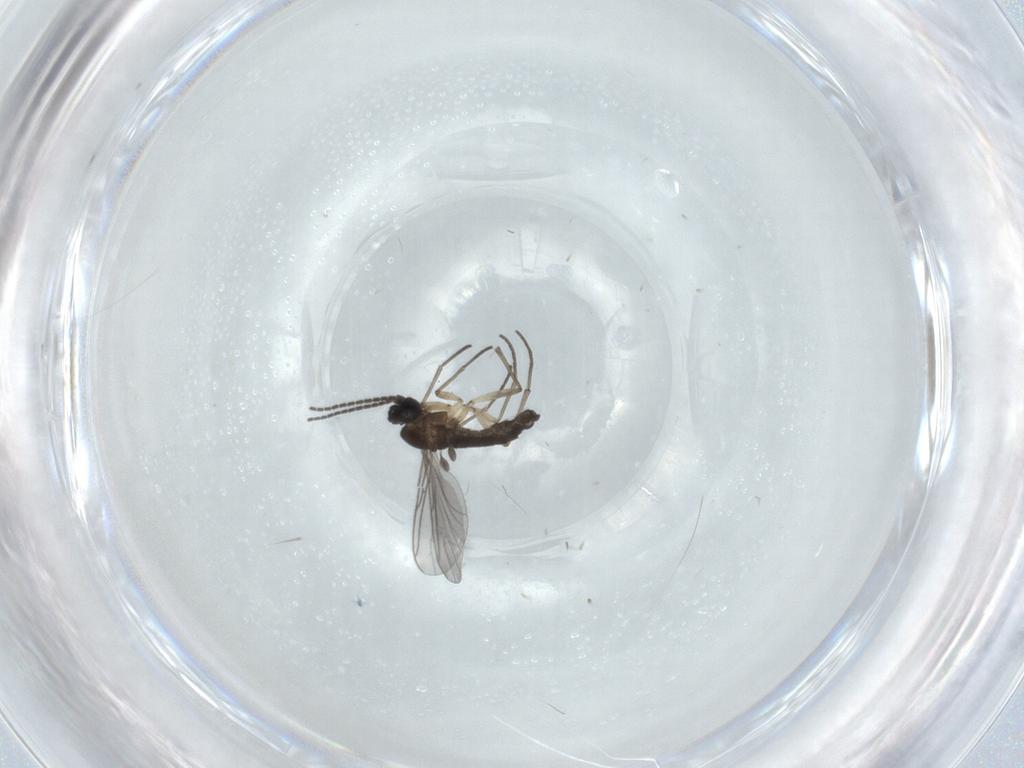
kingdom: Animalia
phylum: Arthropoda
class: Insecta
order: Diptera
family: Sciaridae
